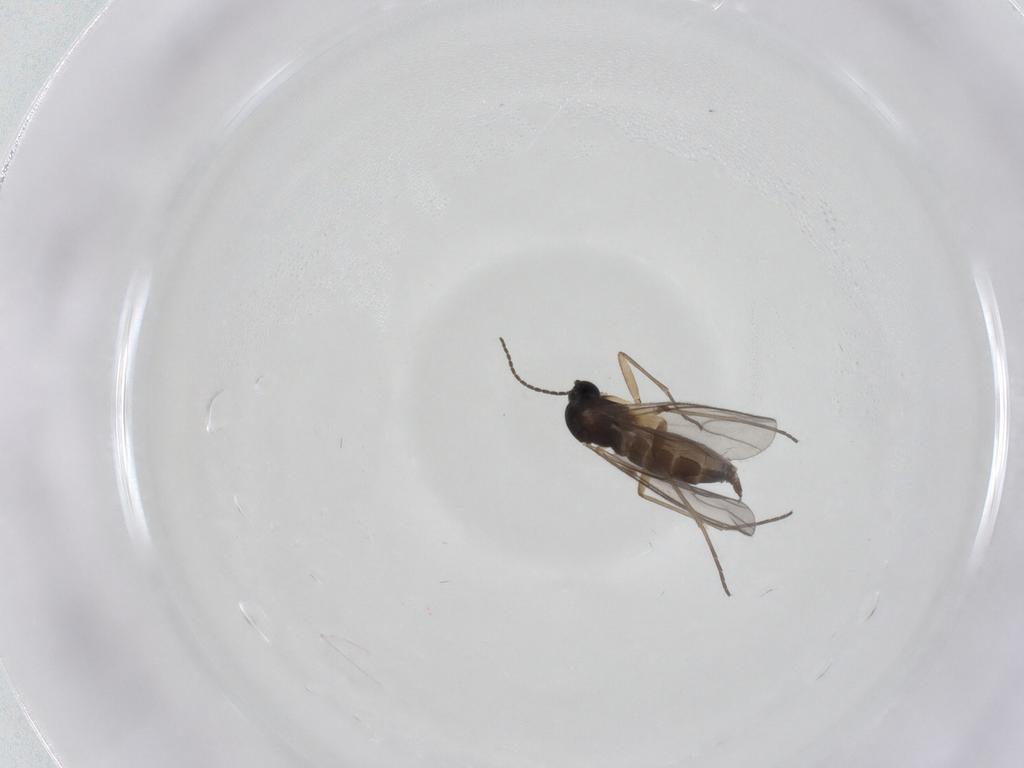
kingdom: Animalia
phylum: Arthropoda
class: Insecta
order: Diptera
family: Sciaridae
